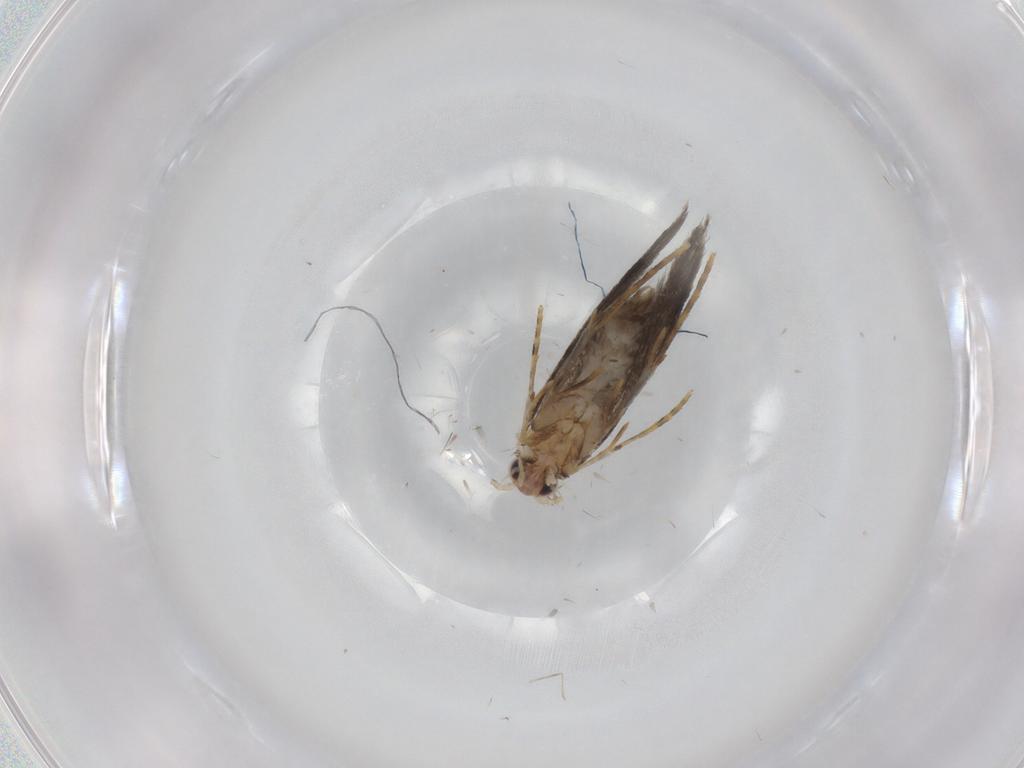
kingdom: Animalia
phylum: Arthropoda
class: Insecta
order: Lepidoptera
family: Tineidae
